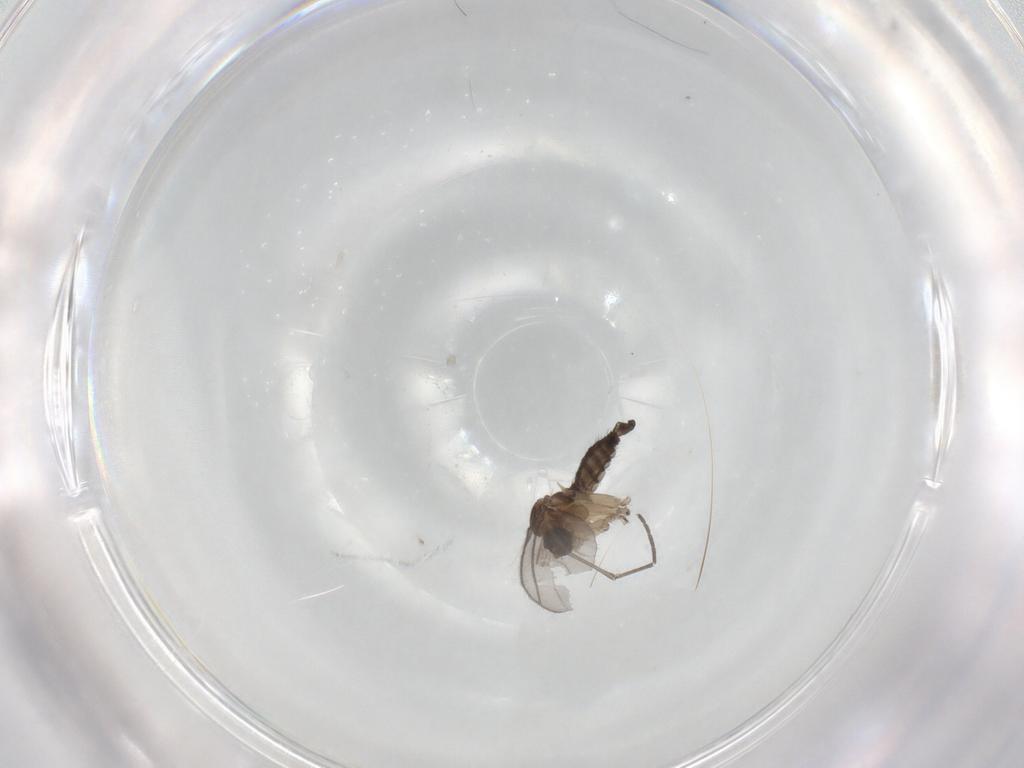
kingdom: Animalia
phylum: Arthropoda
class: Insecta
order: Diptera
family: Sciaridae
